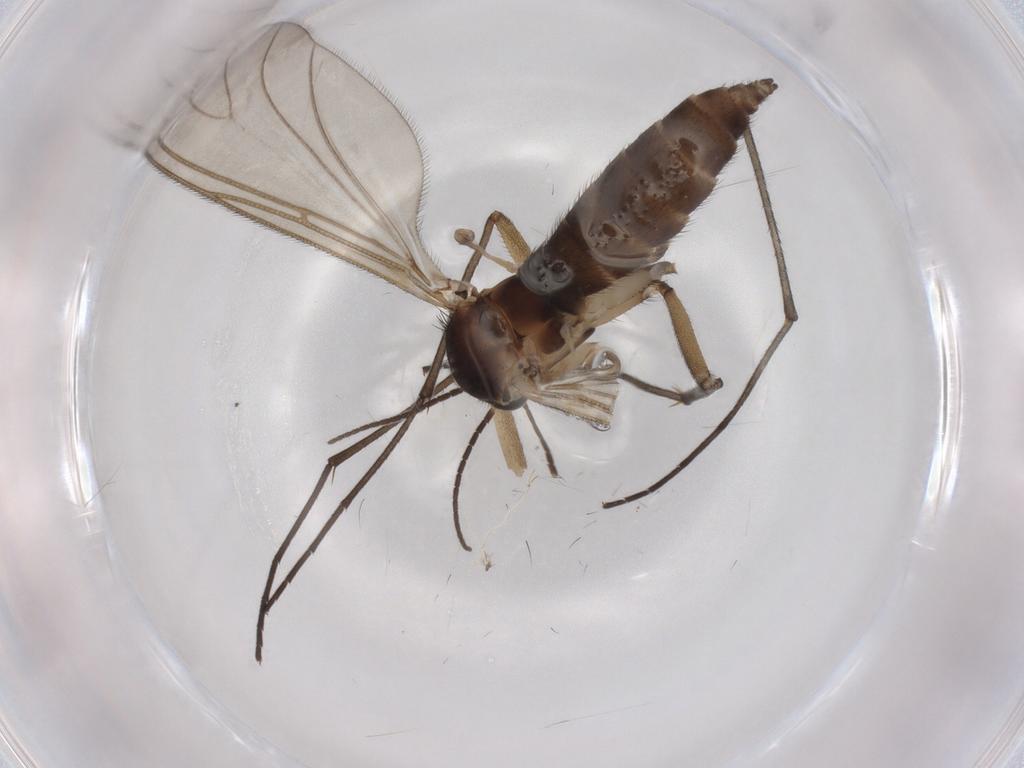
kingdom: Animalia
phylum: Arthropoda
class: Insecta
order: Diptera
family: Sciaridae
